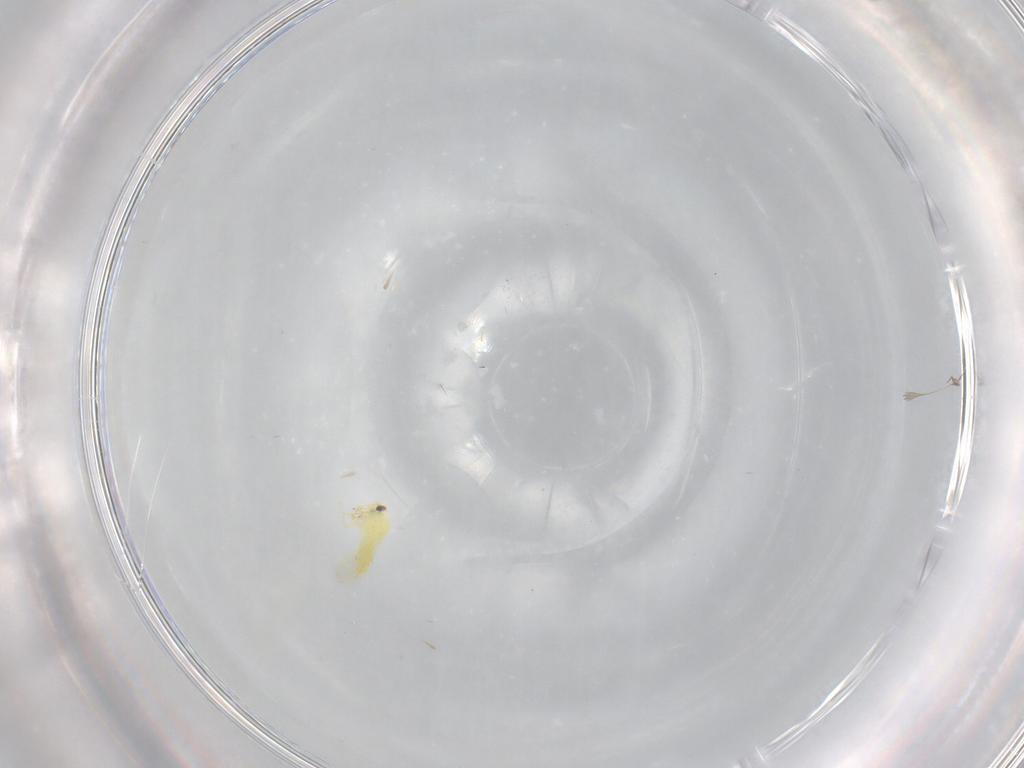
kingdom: Animalia
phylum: Arthropoda
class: Insecta
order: Hemiptera
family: Aleyrodidae
